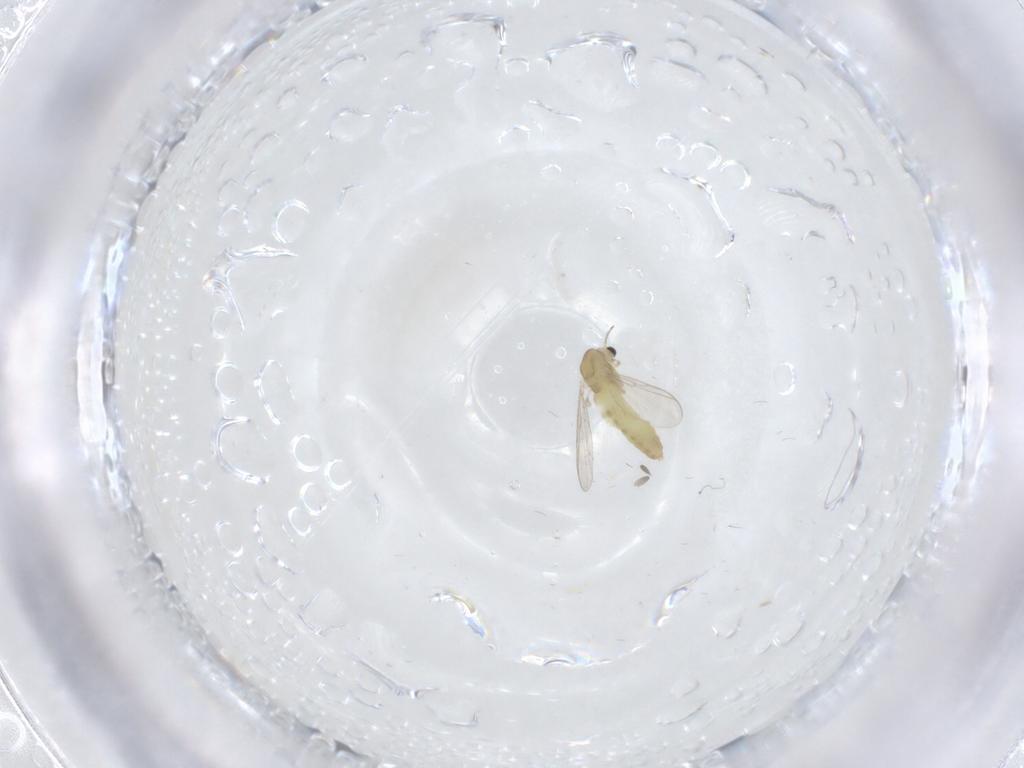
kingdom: Animalia
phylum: Arthropoda
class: Insecta
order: Diptera
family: Chironomidae
